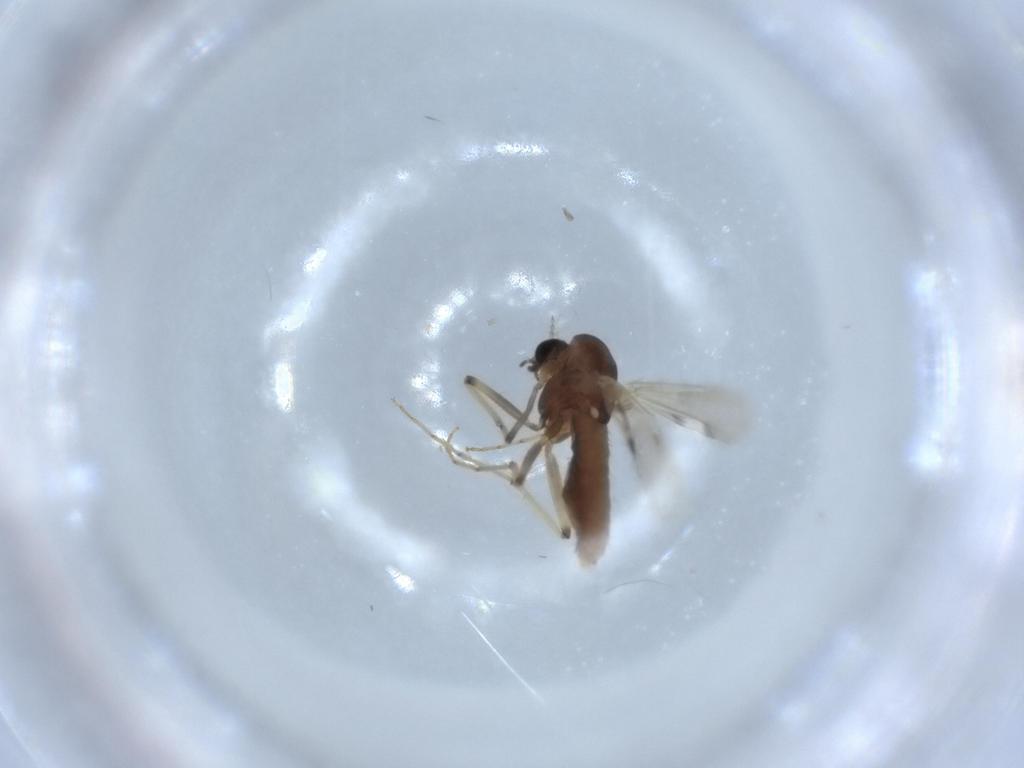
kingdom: Animalia
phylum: Arthropoda
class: Insecta
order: Diptera
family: Chironomidae
